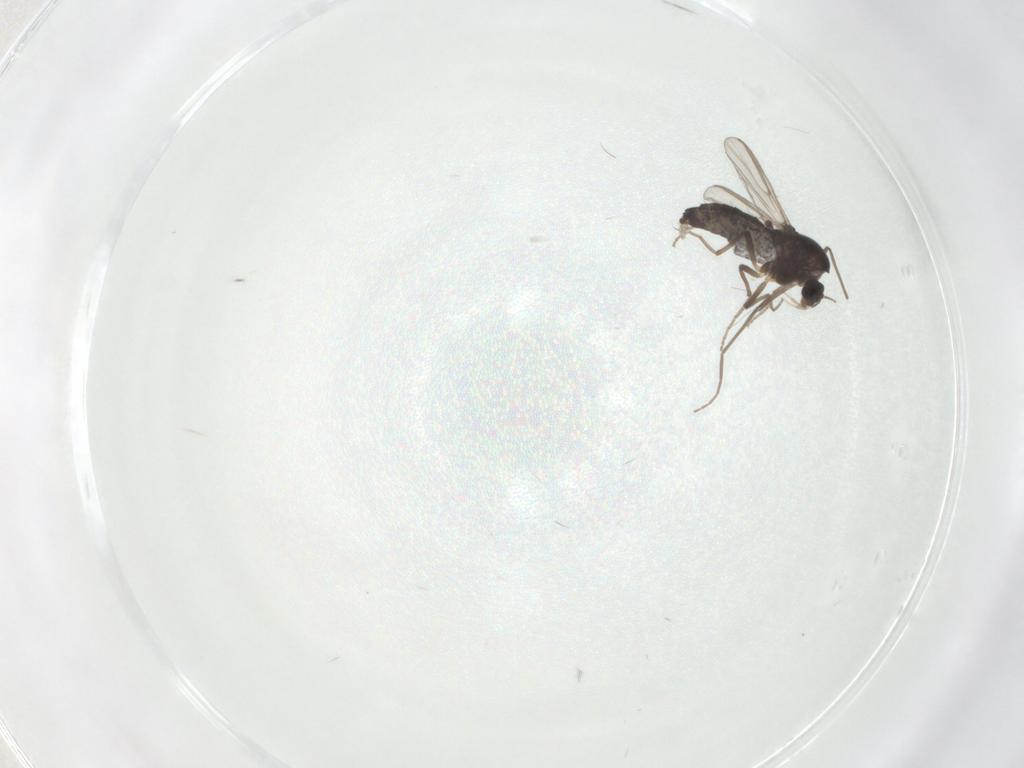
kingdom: Animalia
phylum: Arthropoda
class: Insecta
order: Diptera
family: Chironomidae
